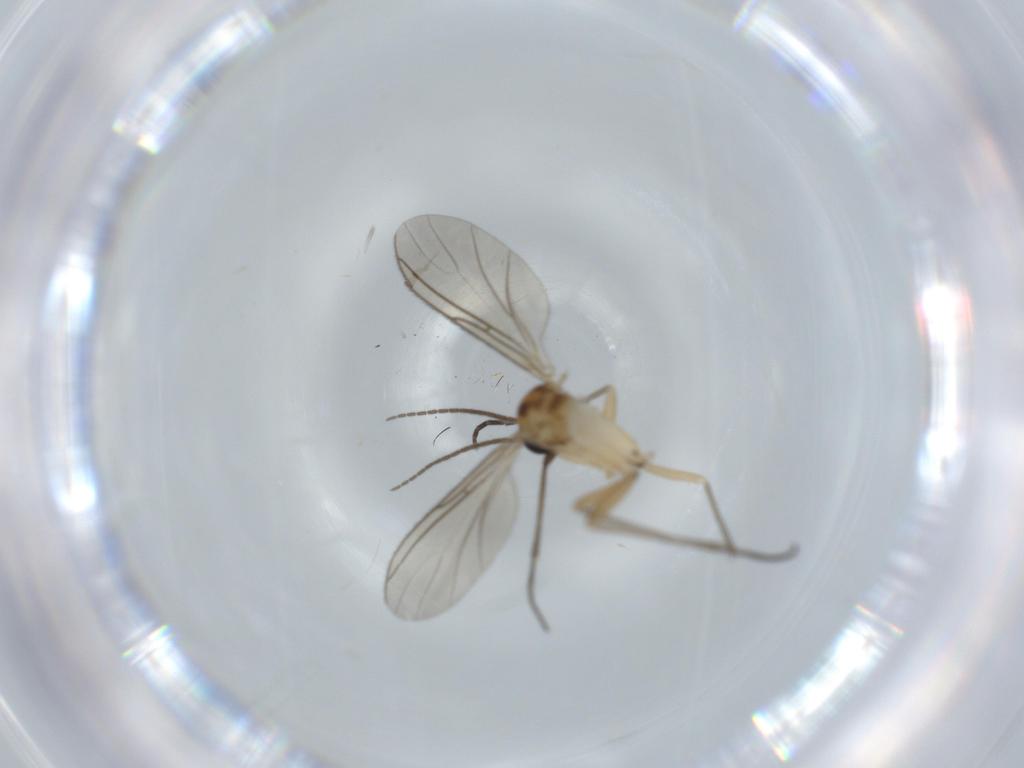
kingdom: Animalia
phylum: Arthropoda
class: Insecta
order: Diptera
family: Sciaridae
